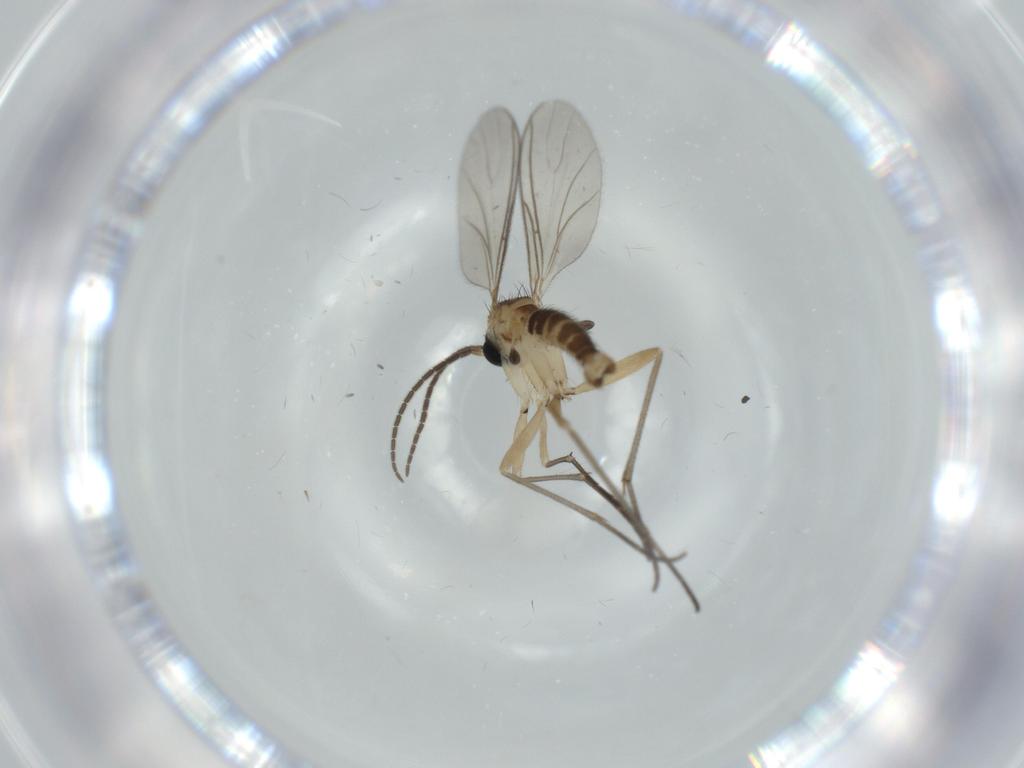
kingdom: Animalia
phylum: Arthropoda
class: Insecta
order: Diptera
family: Sciaridae
